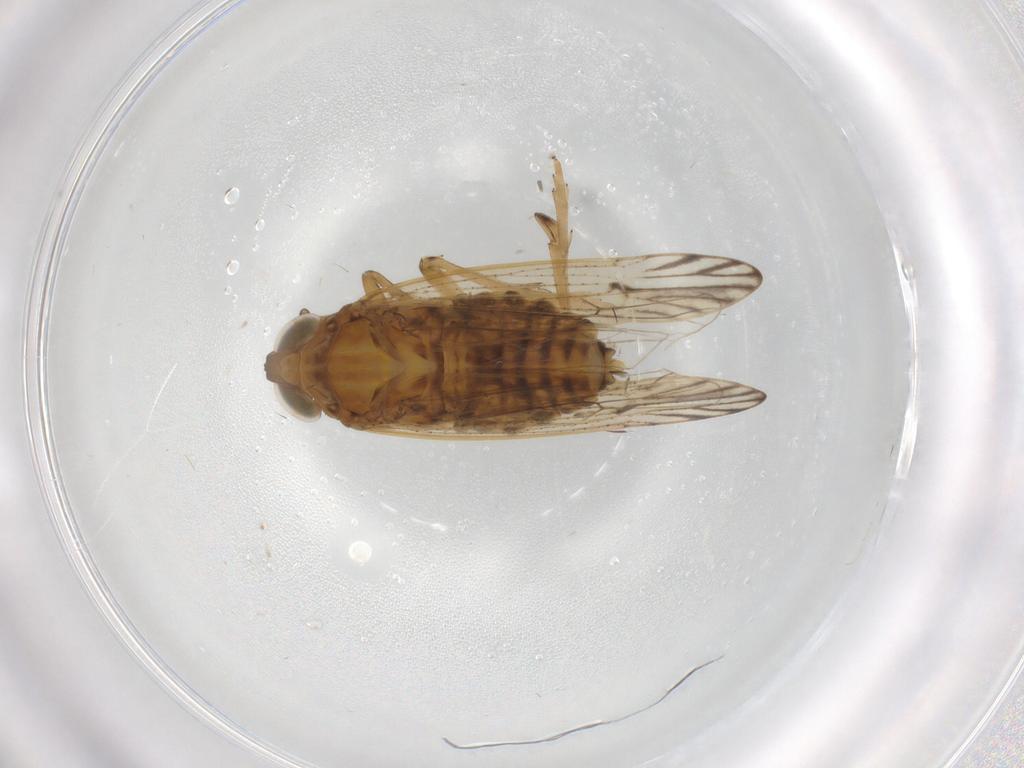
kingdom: Animalia
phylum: Arthropoda
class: Insecta
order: Hemiptera
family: Delphacidae
